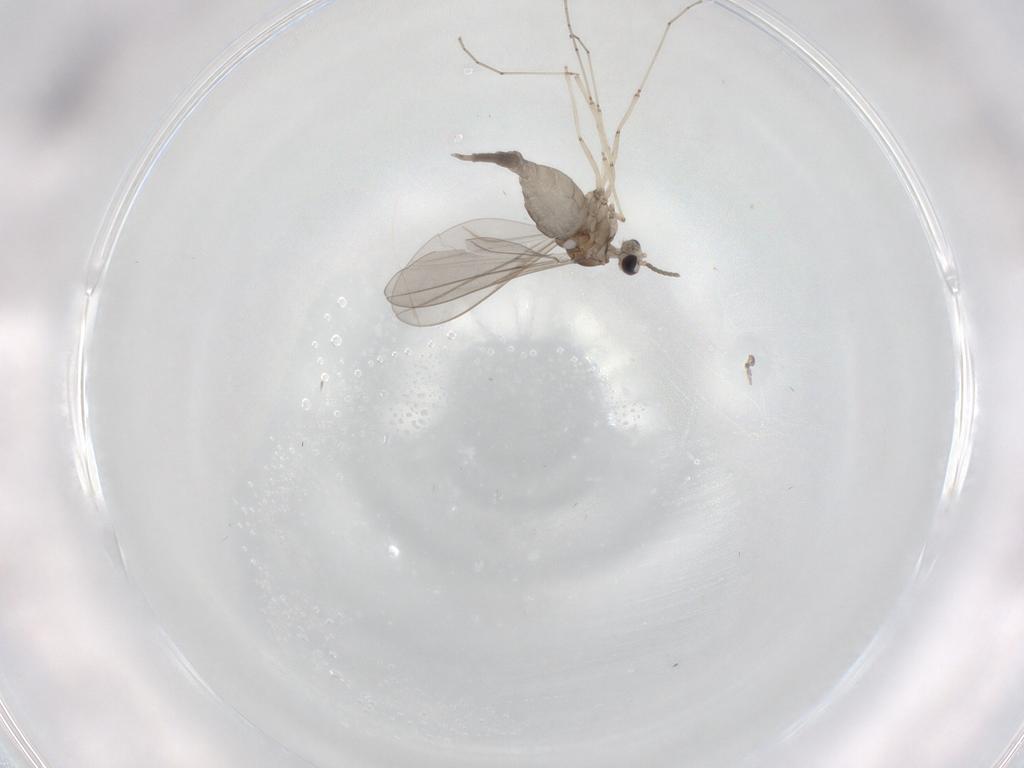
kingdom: Animalia
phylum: Arthropoda
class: Insecta
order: Diptera
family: Cecidomyiidae
